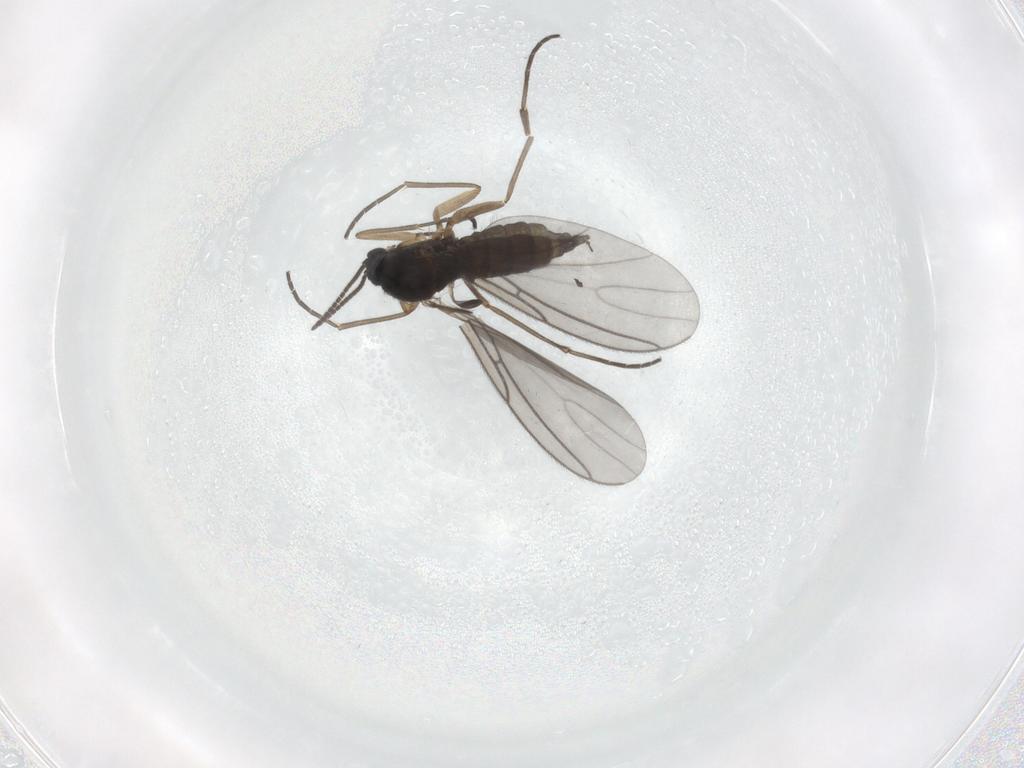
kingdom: Animalia
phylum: Arthropoda
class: Insecta
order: Diptera
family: Sciaridae
